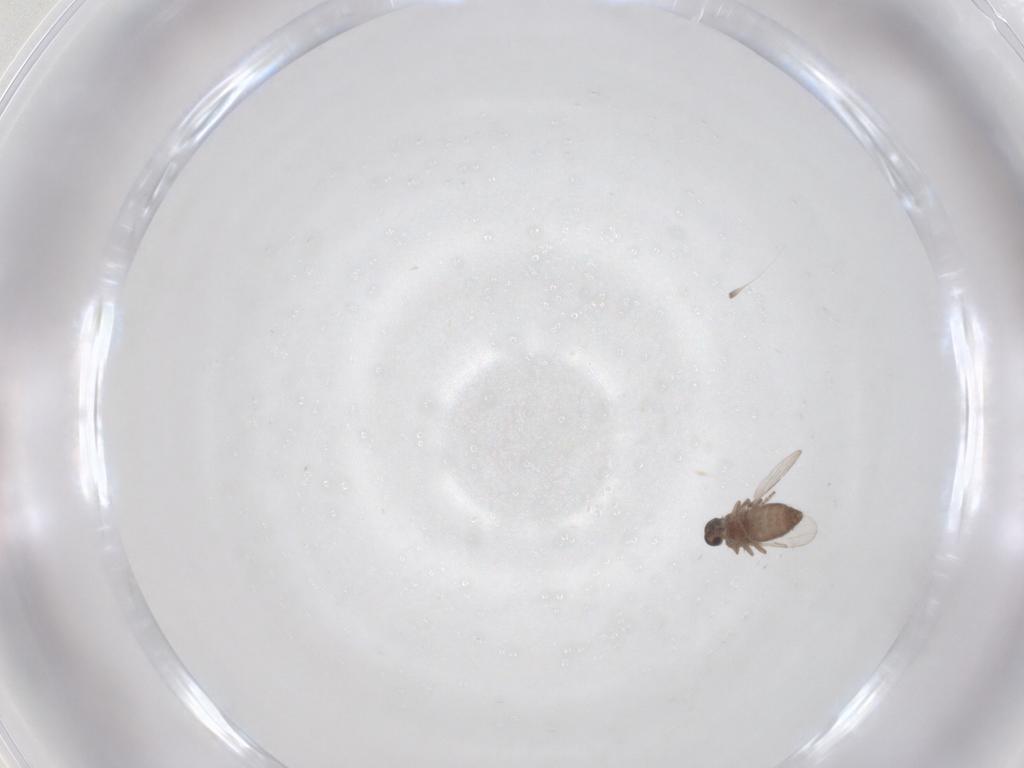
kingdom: Animalia
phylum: Arthropoda
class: Insecta
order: Diptera
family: Ceratopogonidae
